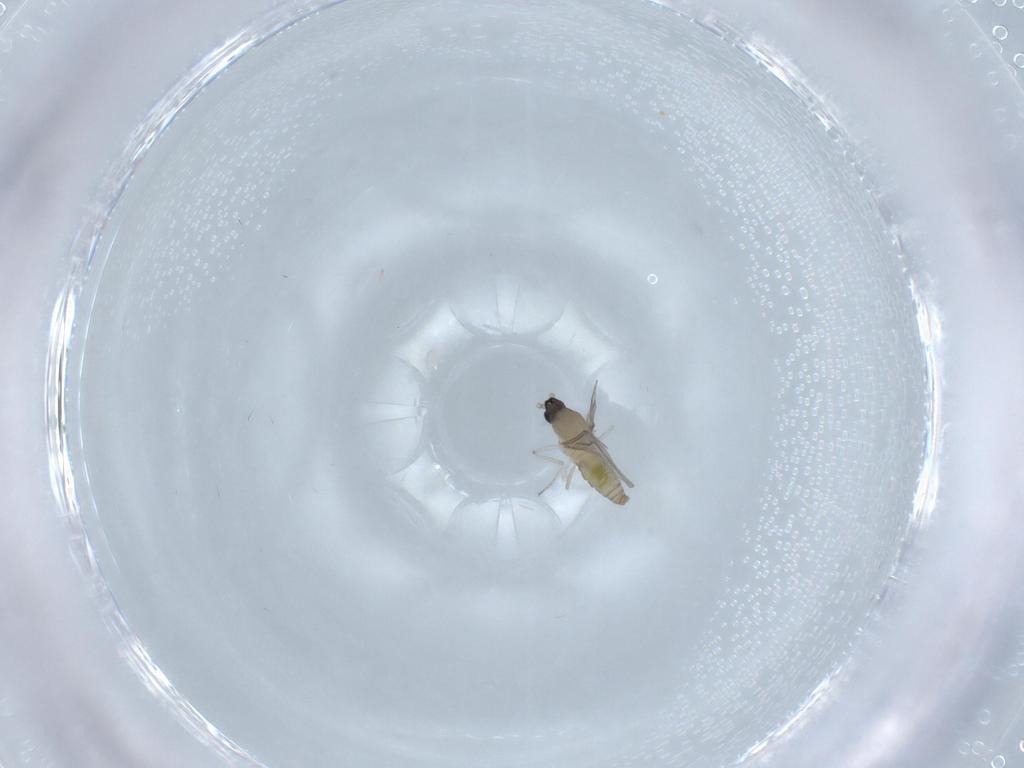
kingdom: Animalia
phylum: Arthropoda
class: Insecta
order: Diptera
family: Cecidomyiidae
